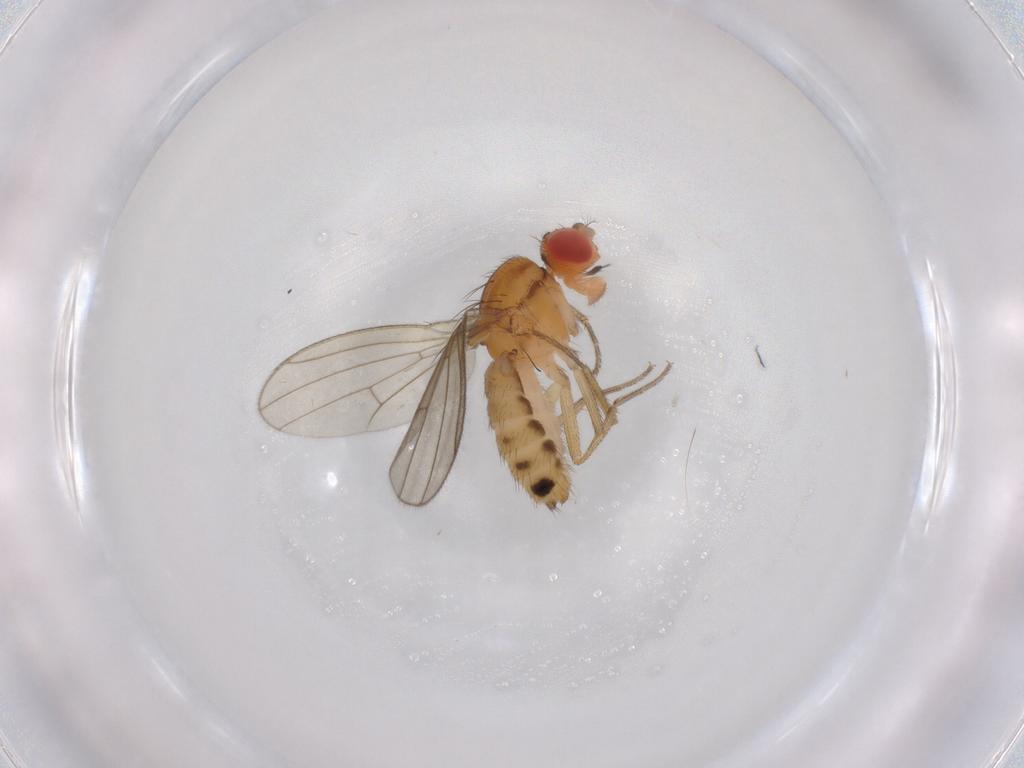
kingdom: Animalia
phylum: Arthropoda
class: Insecta
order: Diptera
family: Drosophilidae
